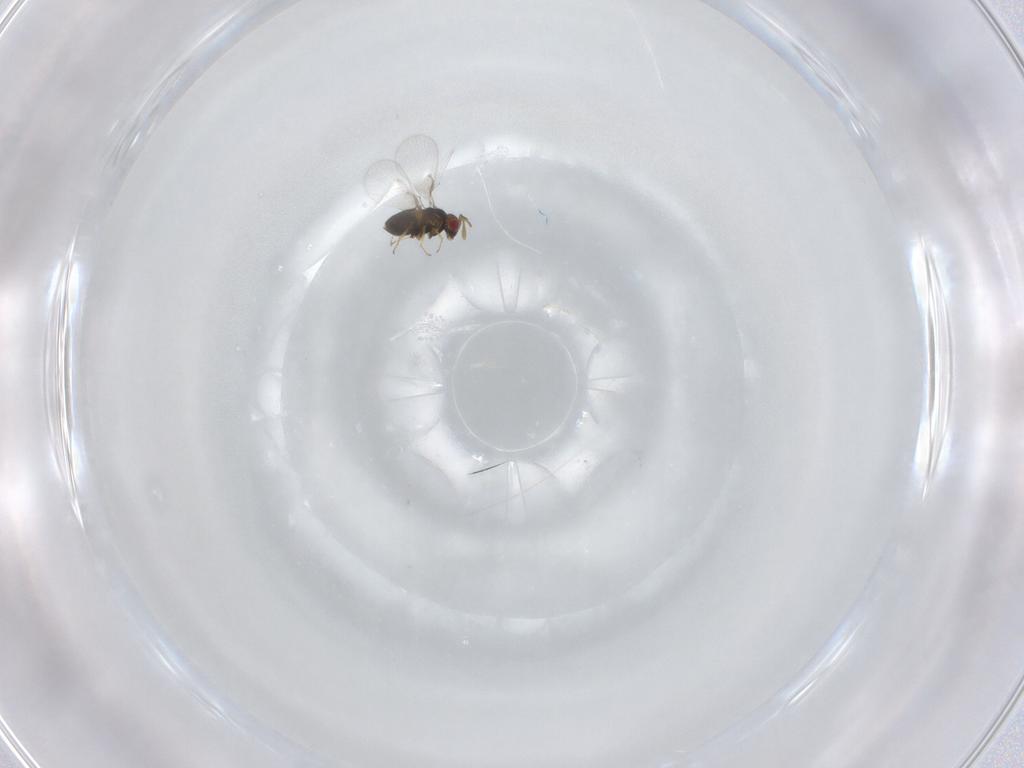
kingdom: Animalia
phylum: Arthropoda
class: Insecta
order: Hymenoptera
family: Trichogrammatidae
